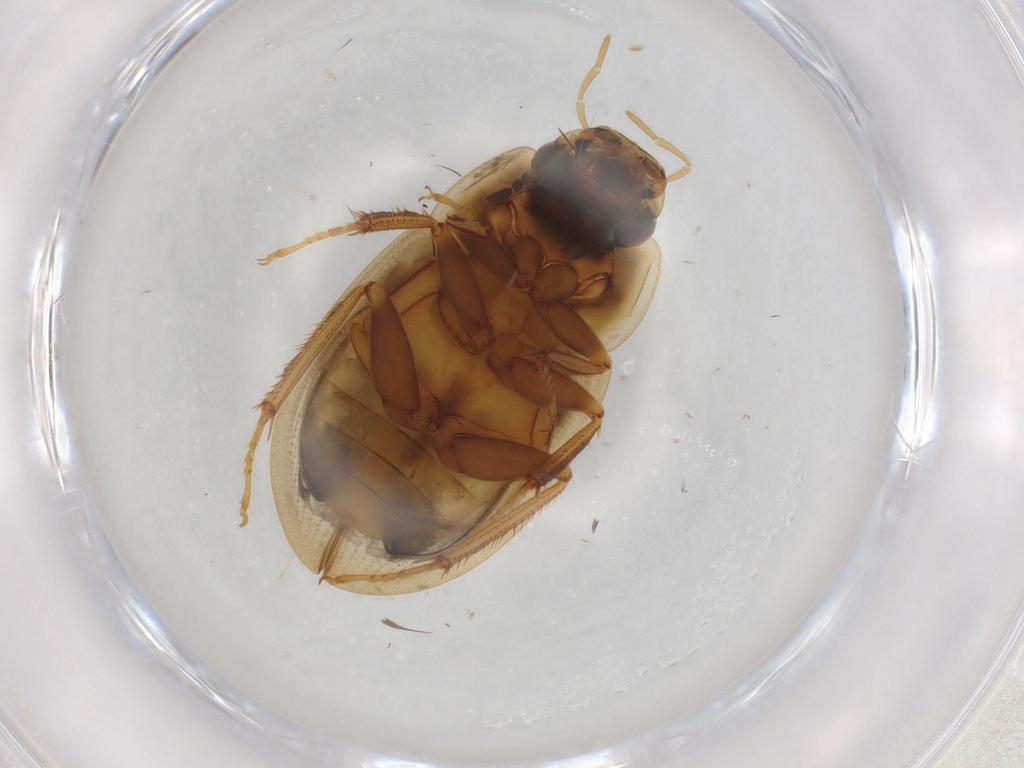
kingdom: Animalia
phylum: Arthropoda
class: Insecta
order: Coleoptera
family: Hydrophilidae
